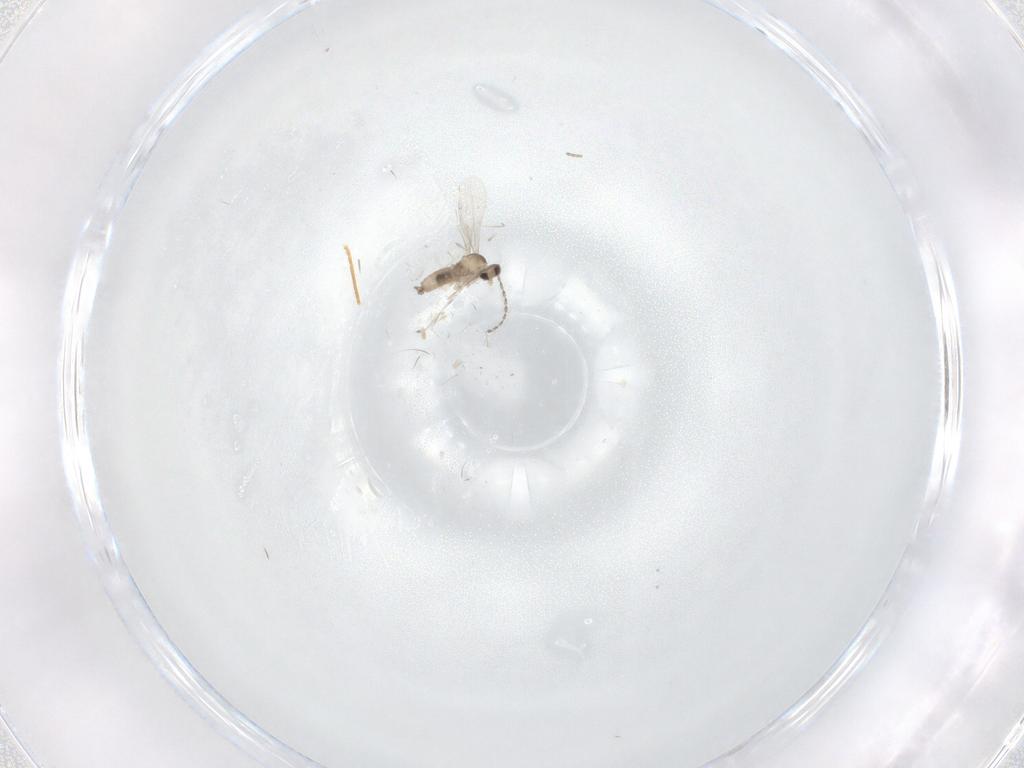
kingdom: Animalia
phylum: Arthropoda
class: Insecta
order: Diptera
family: Cecidomyiidae
